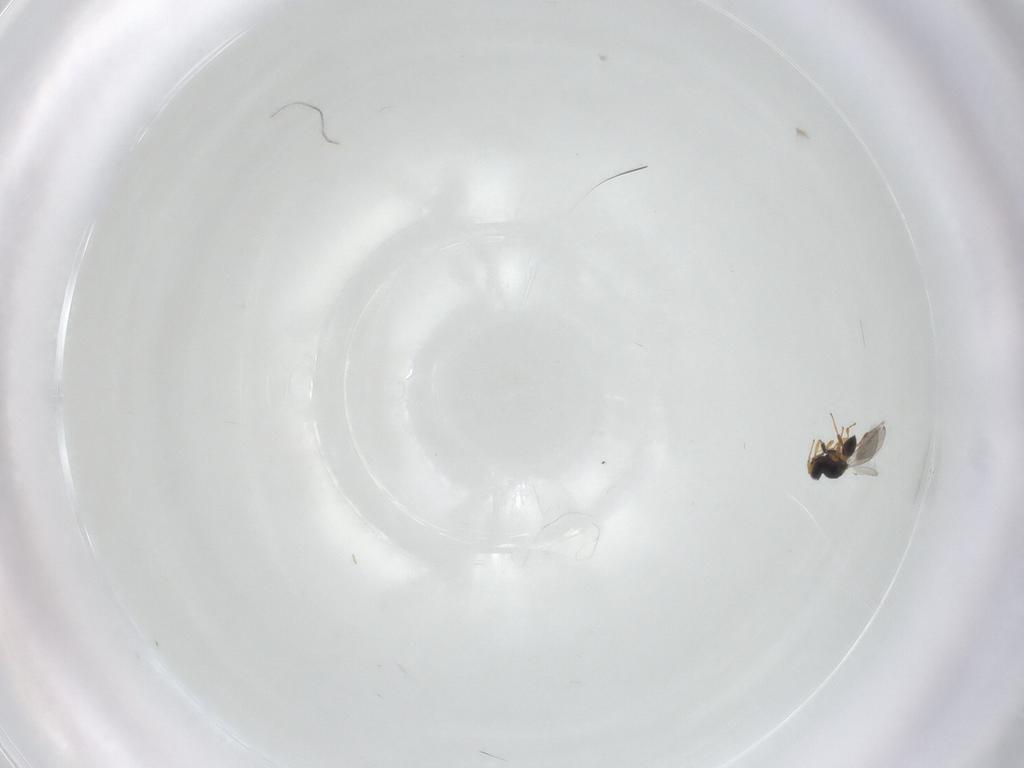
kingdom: Animalia
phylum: Arthropoda
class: Insecta
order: Hymenoptera
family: Platygastridae
